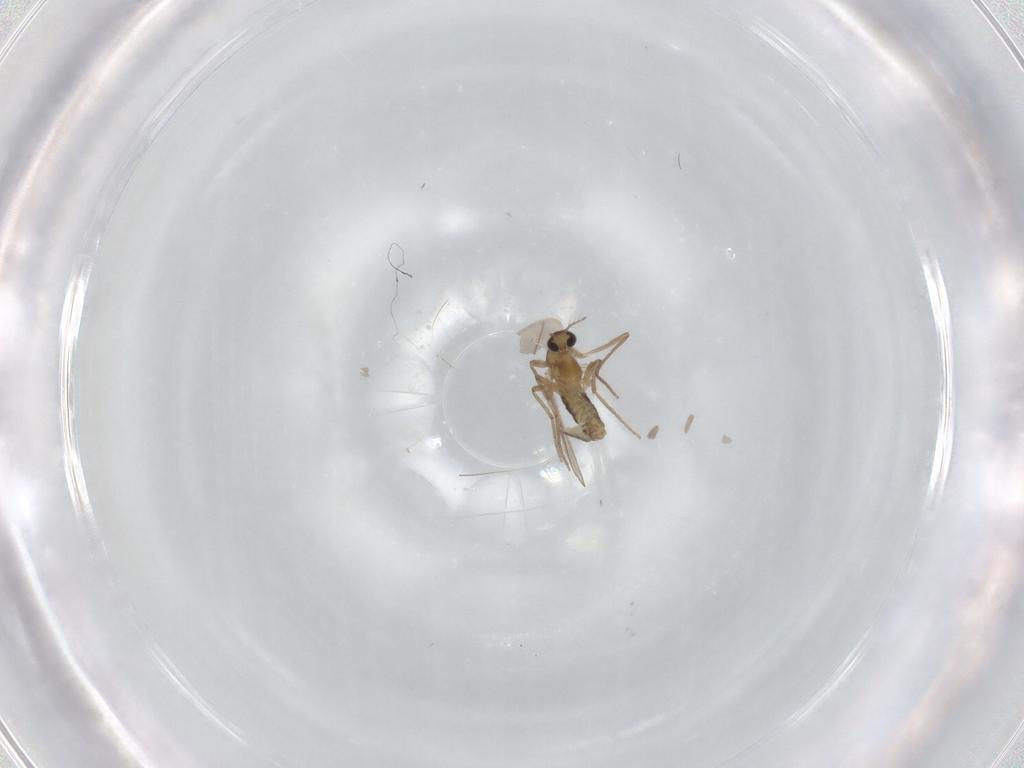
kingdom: Animalia
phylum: Arthropoda
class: Insecta
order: Diptera
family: Chironomidae
